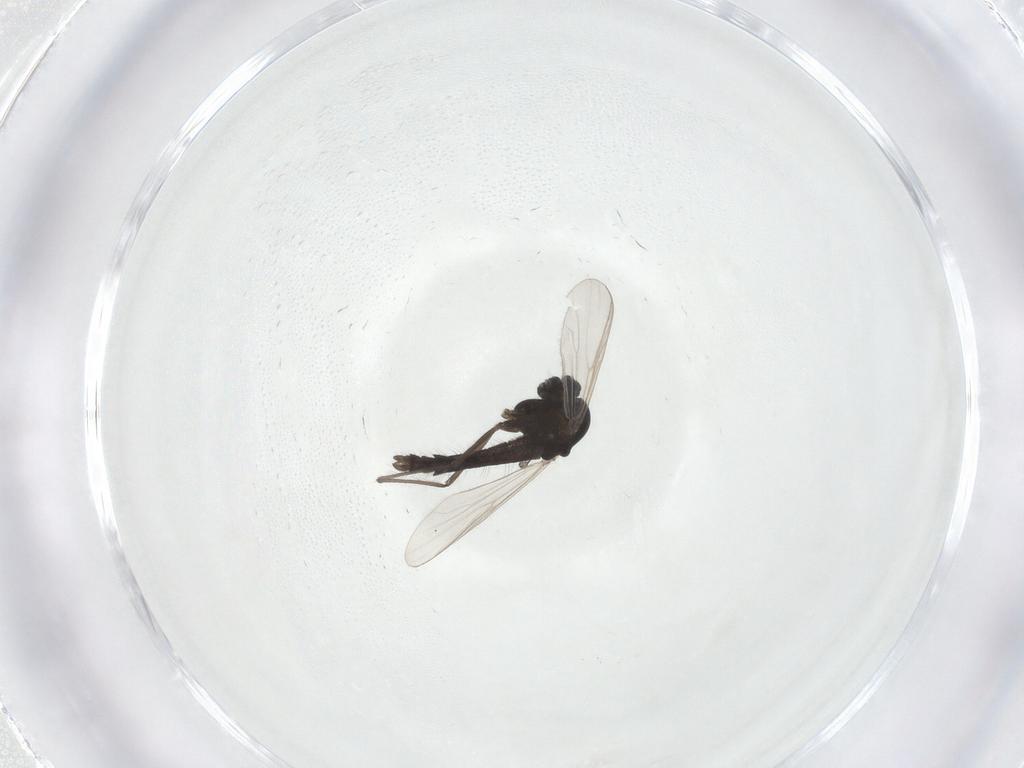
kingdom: Animalia
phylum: Arthropoda
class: Insecta
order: Diptera
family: Chironomidae
